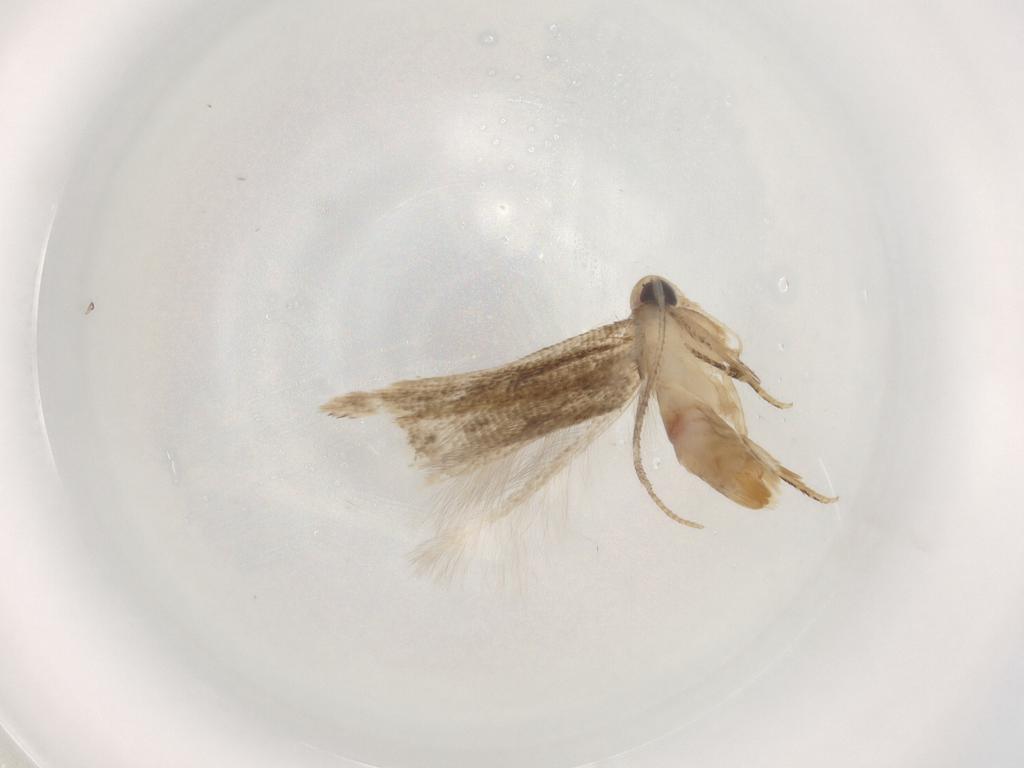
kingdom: Animalia
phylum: Arthropoda
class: Insecta
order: Lepidoptera
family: Cosmopterigidae
